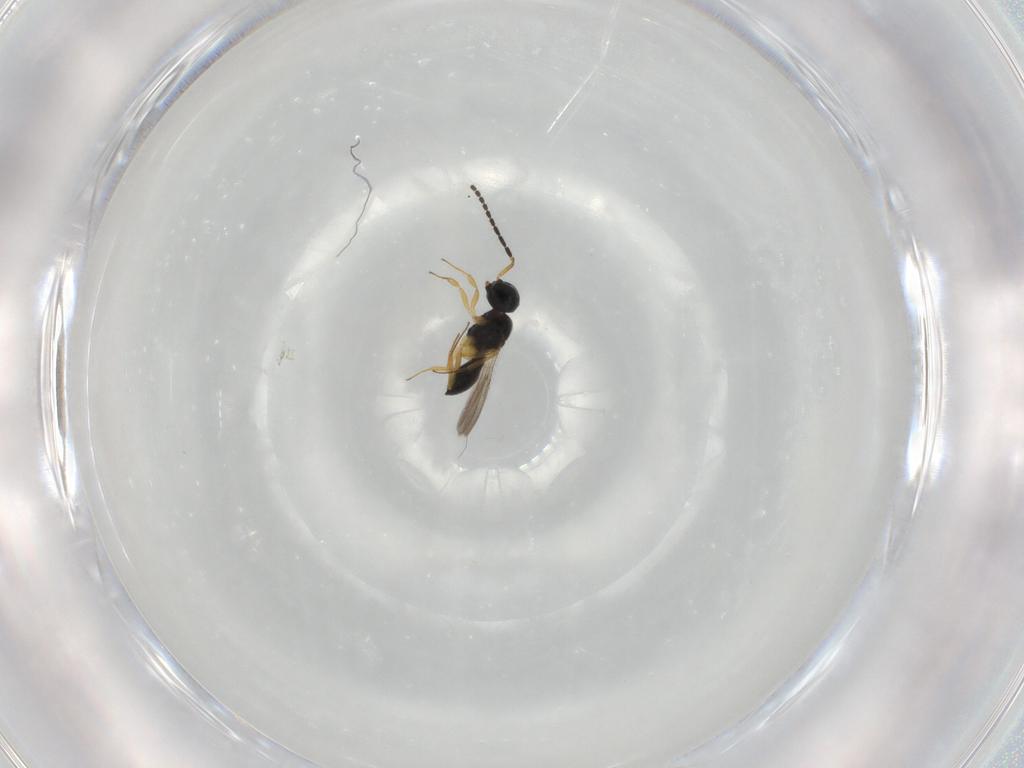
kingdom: Animalia
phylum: Arthropoda
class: Insecta
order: Hymenoptera
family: Scelionidae
